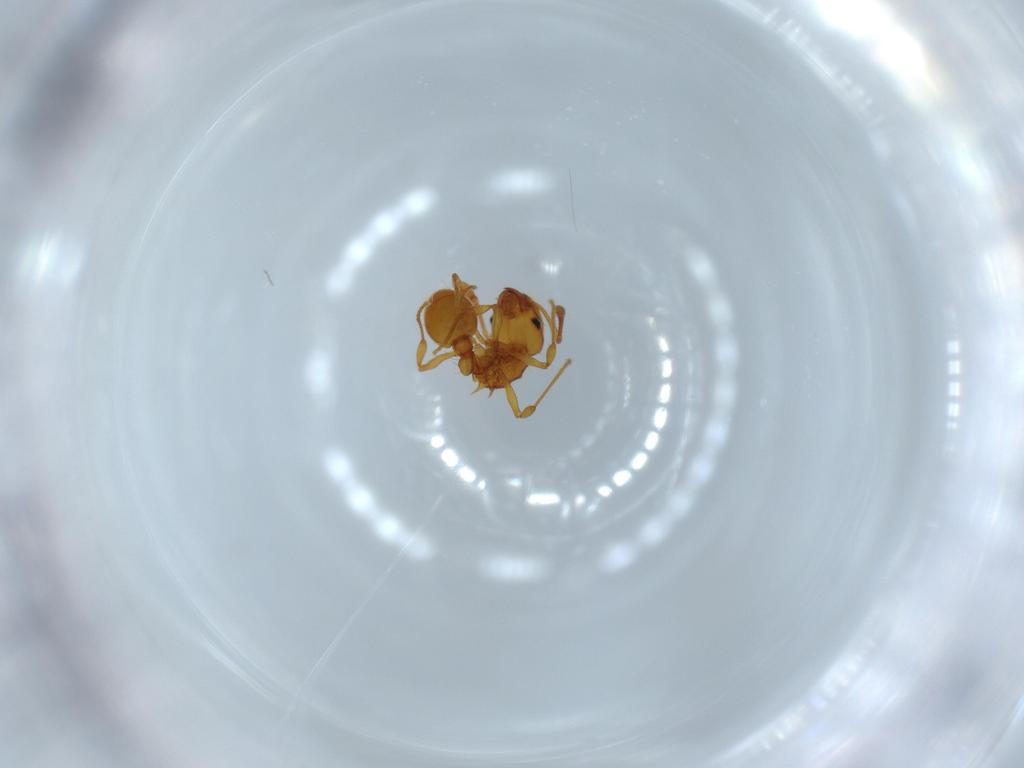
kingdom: Animalia
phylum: Arthropoda
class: Insecta
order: Hymenoptera
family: Formicidae
